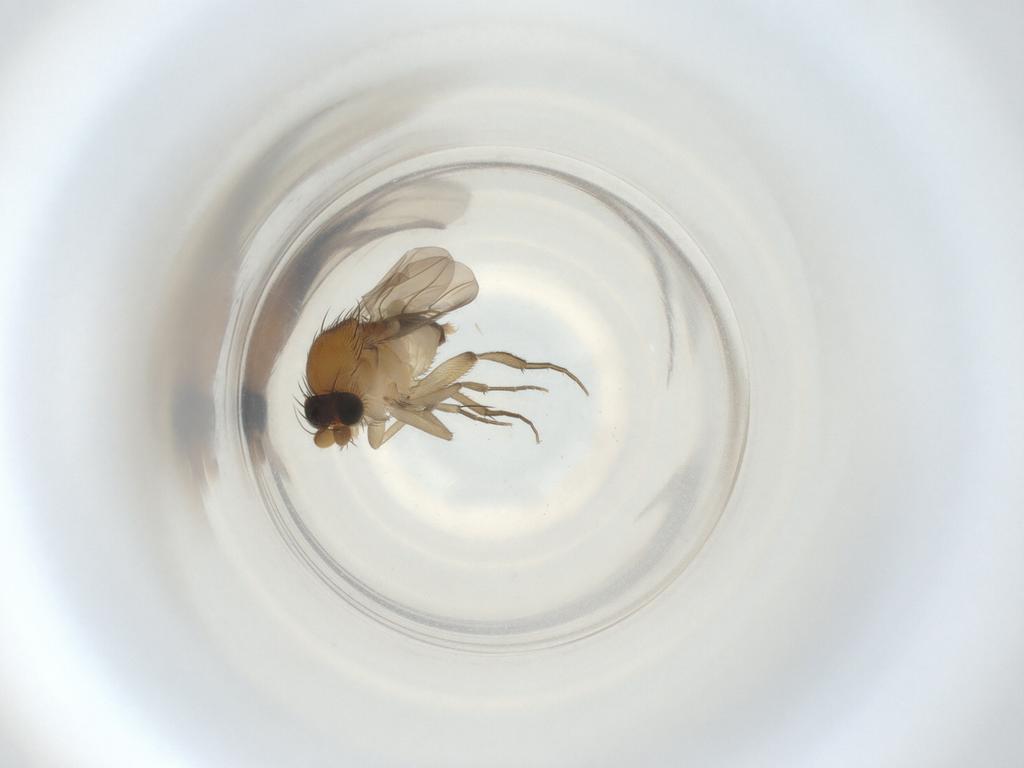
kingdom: Animalia
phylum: Arthropoda
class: Insecta
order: Diptera
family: Phoridae
